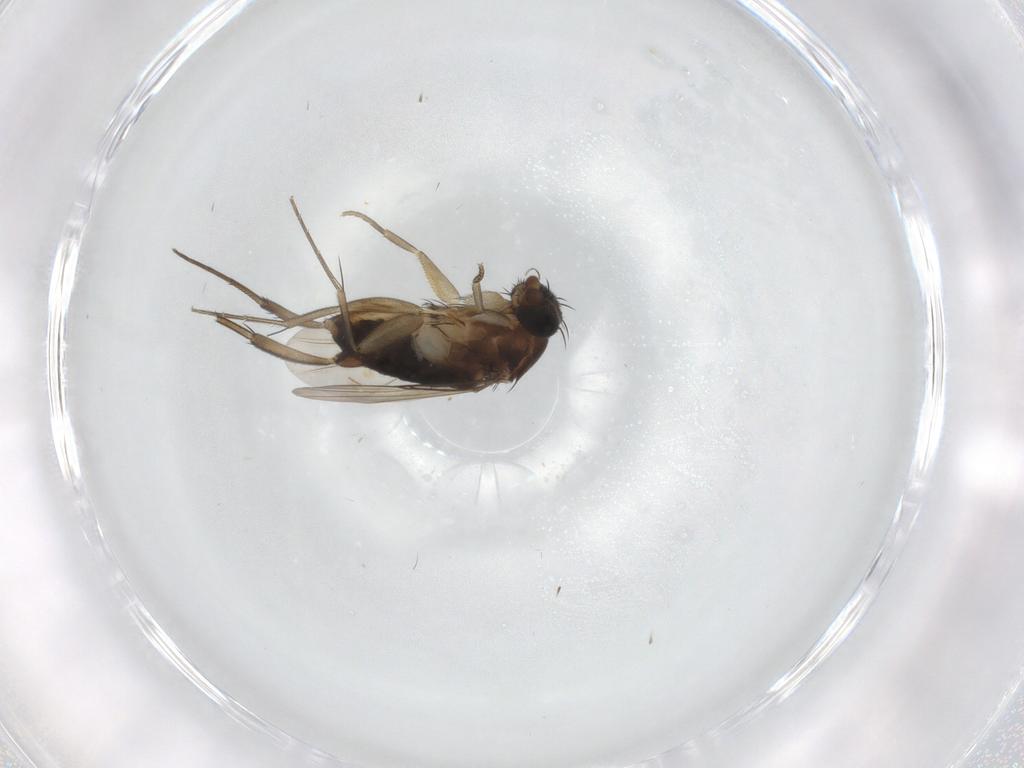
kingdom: Animalia
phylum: Arthropoda
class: Insecta
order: Diptera
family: Phoridae
